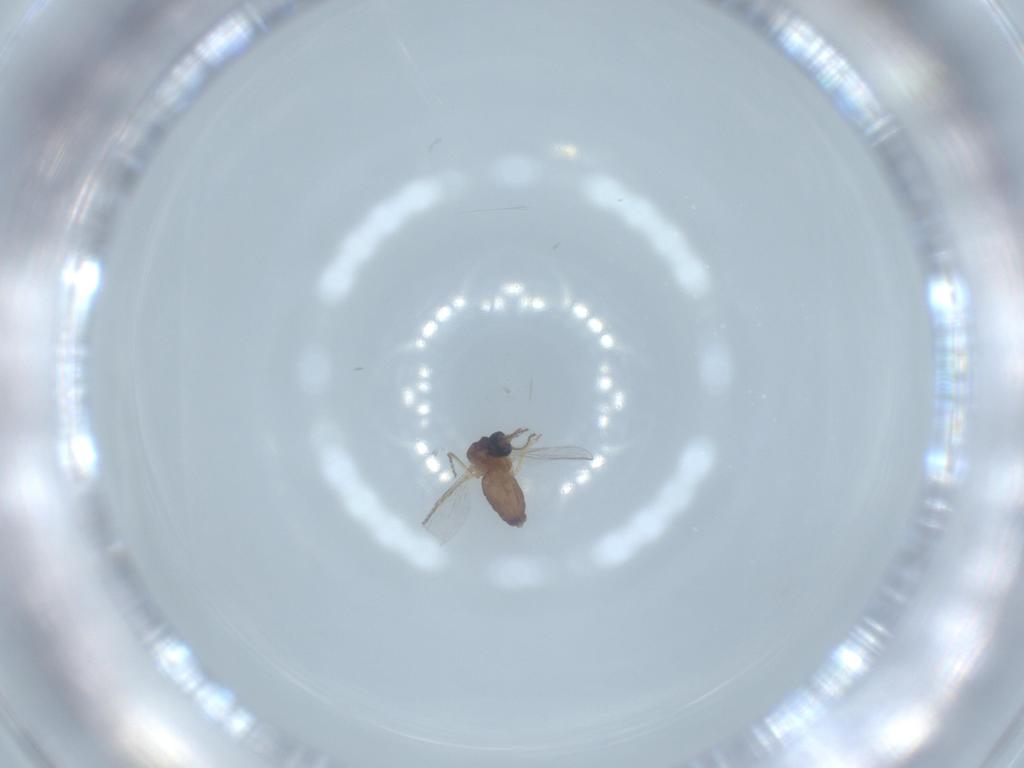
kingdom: Animalia
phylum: Arthropoda
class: Insecta
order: Diptera
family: Ceratopogonidae
